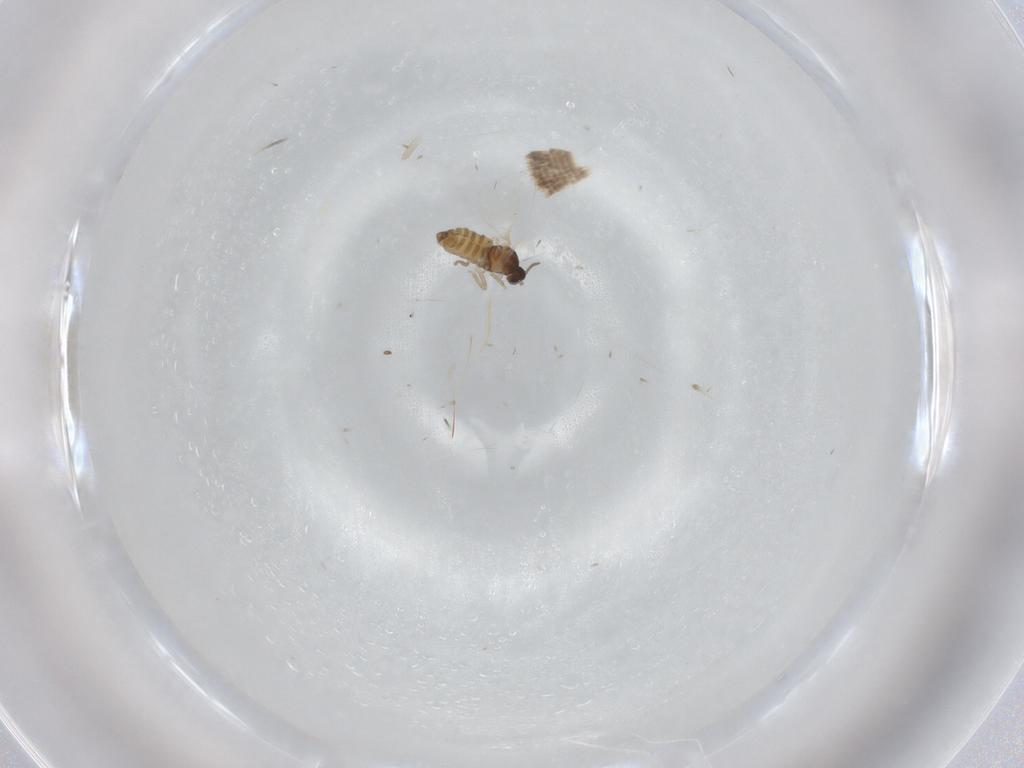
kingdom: Animalia
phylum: Arthropoda
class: Insecta
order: Diptera
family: Cecidomyiidae
